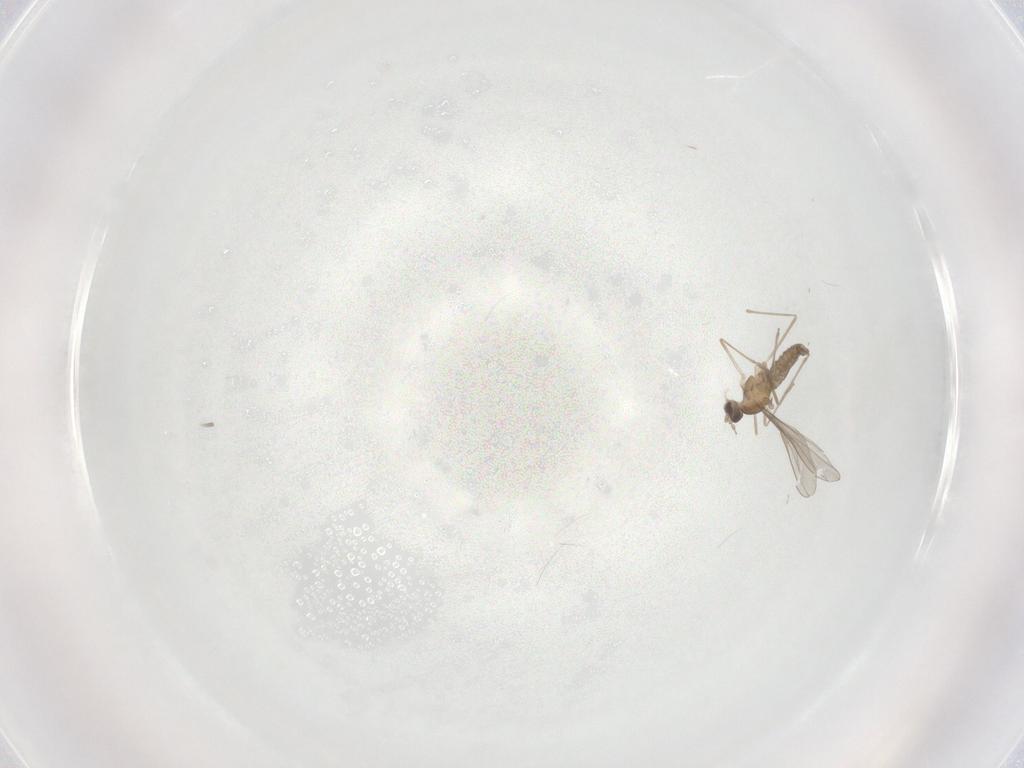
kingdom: Animalia
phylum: Arthropoda
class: Insecta
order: Diptera
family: Cecidomyiidae
